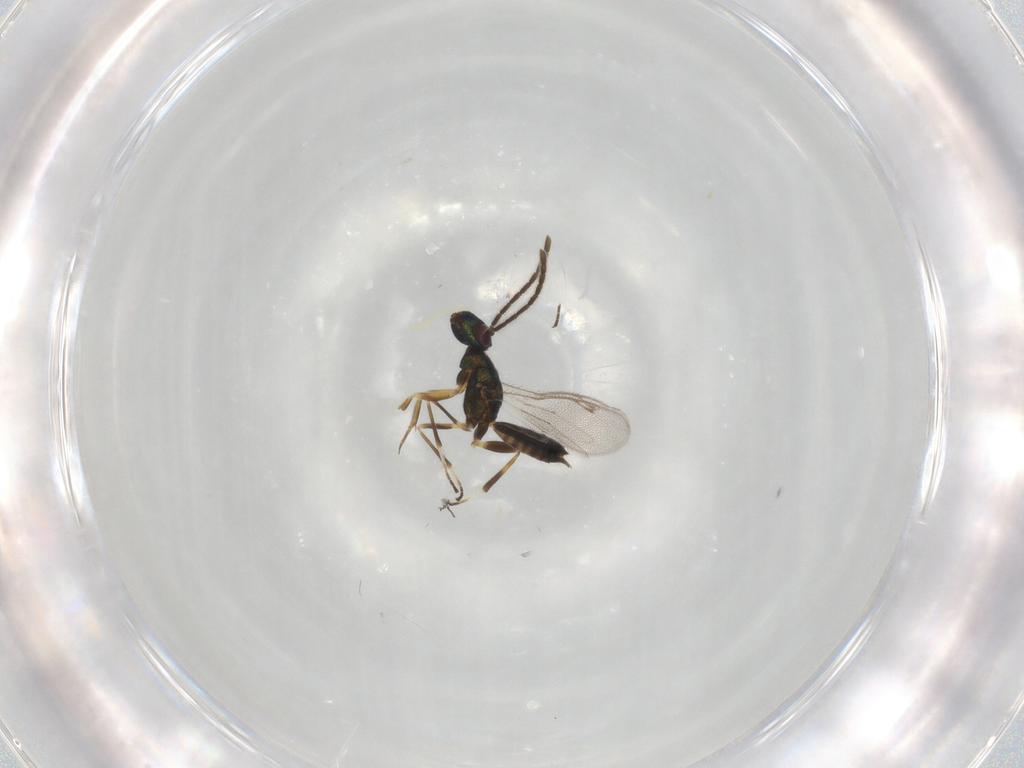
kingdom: Animalia
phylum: Arthropoda
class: Insecta
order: Hymenoptera
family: Eupelmidae
